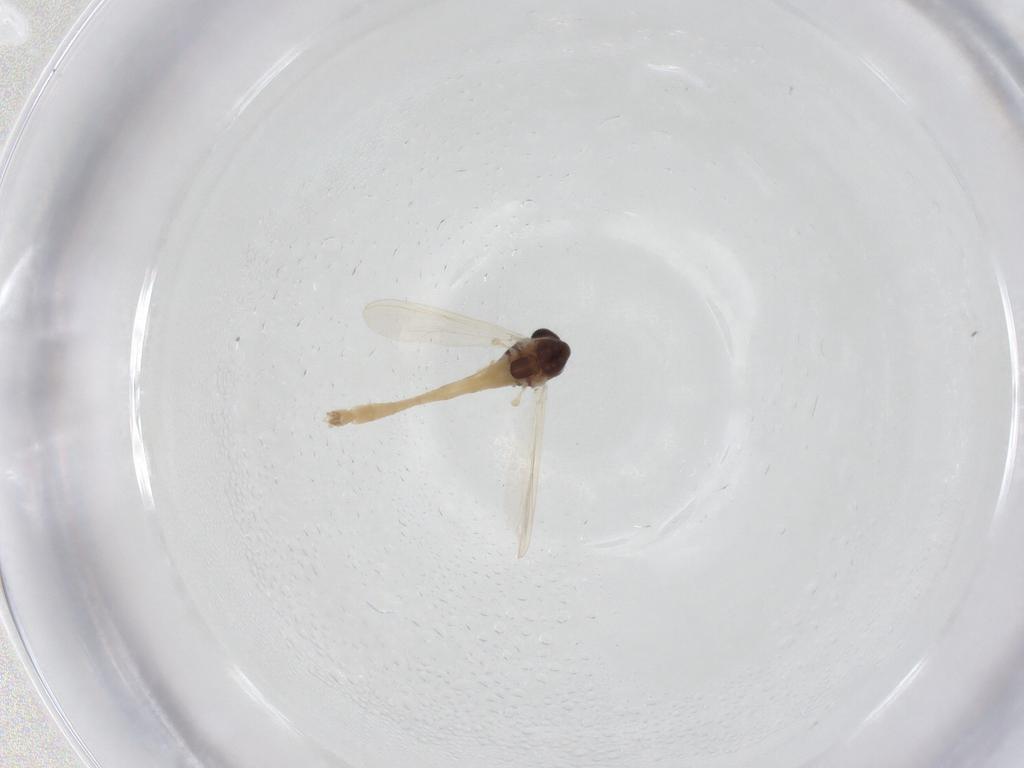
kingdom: Animalia
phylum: Arthropoda
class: Insecta
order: Diptera
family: Chironomidae
